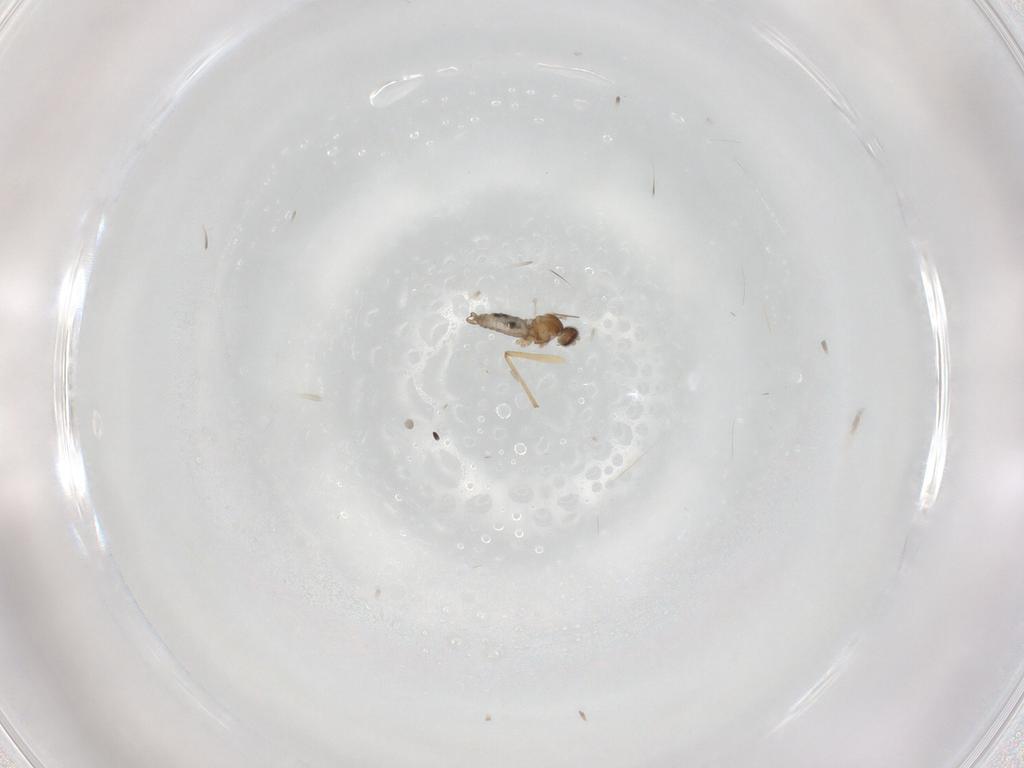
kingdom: Animalia
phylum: Arthropoda
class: Insecta
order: Diptera
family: Cecidomyiidae
